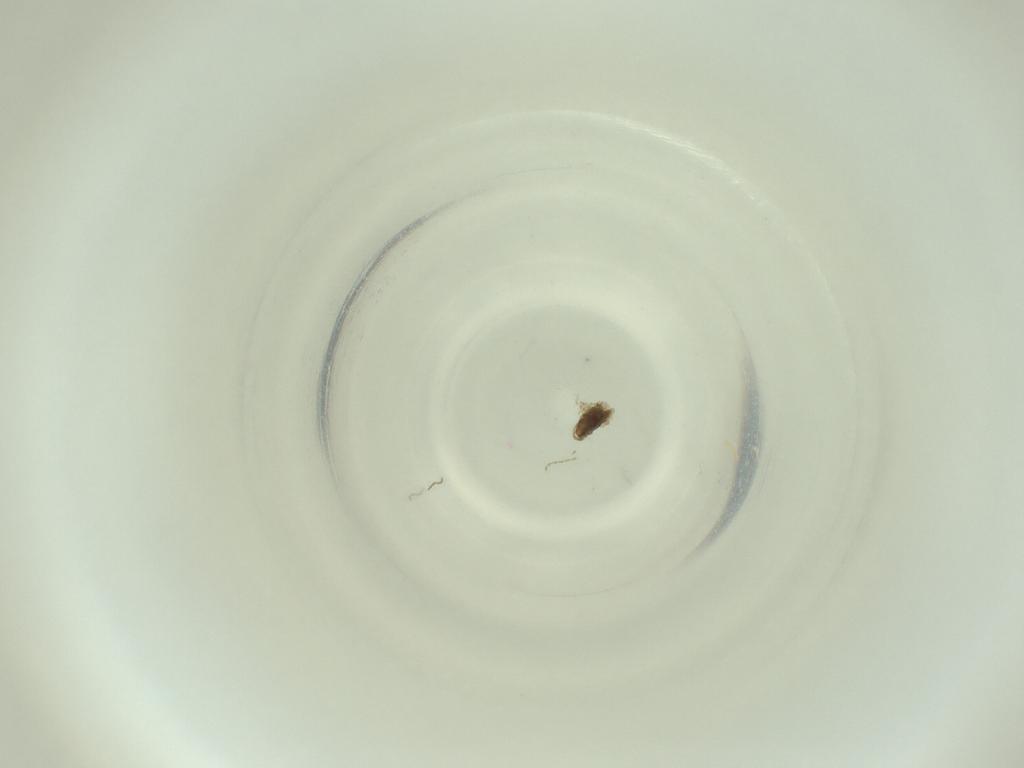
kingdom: Animalia
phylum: Arthropoda
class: Insecta
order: Diptera
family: Cecidomyiidae
